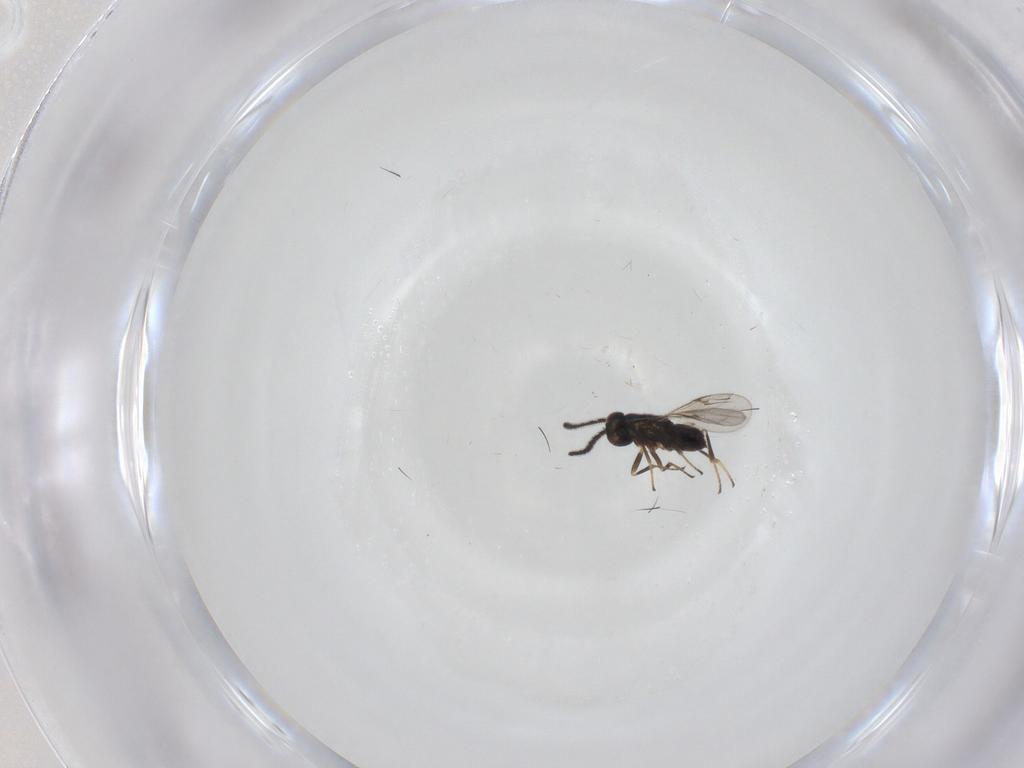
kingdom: Animalia
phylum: Arthropoda
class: Insecta
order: Hymenoptera
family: Encyrtidae
